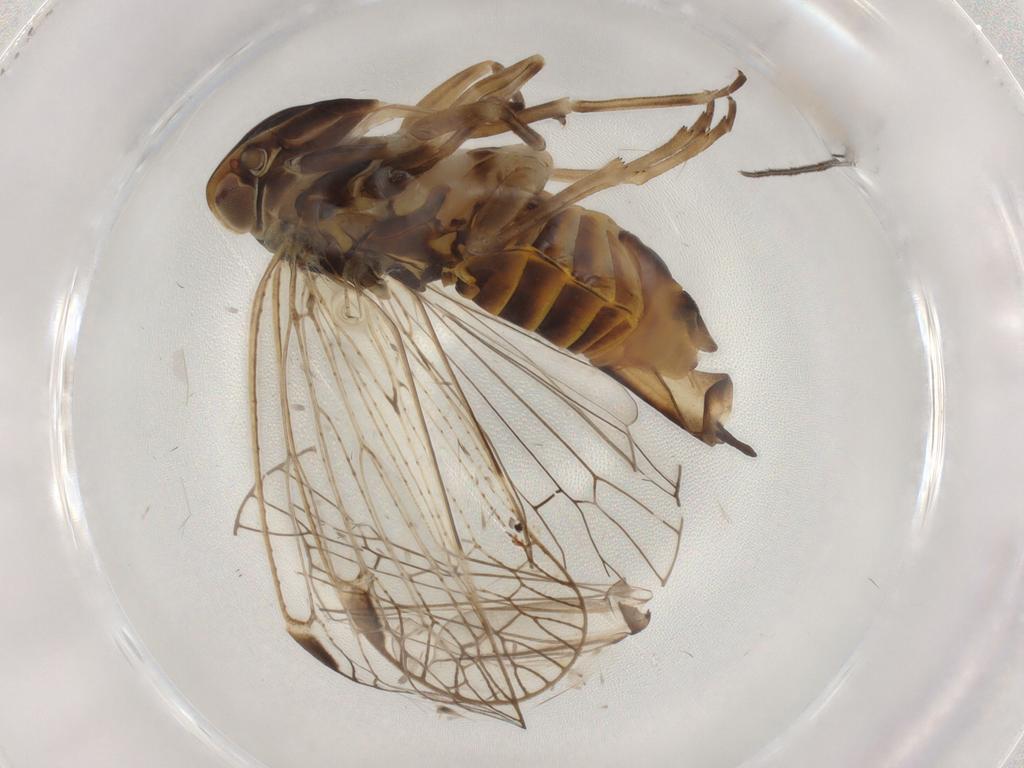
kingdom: Animalia
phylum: Arthropoda
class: Insecta
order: Hemiptera
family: Cixiidae
